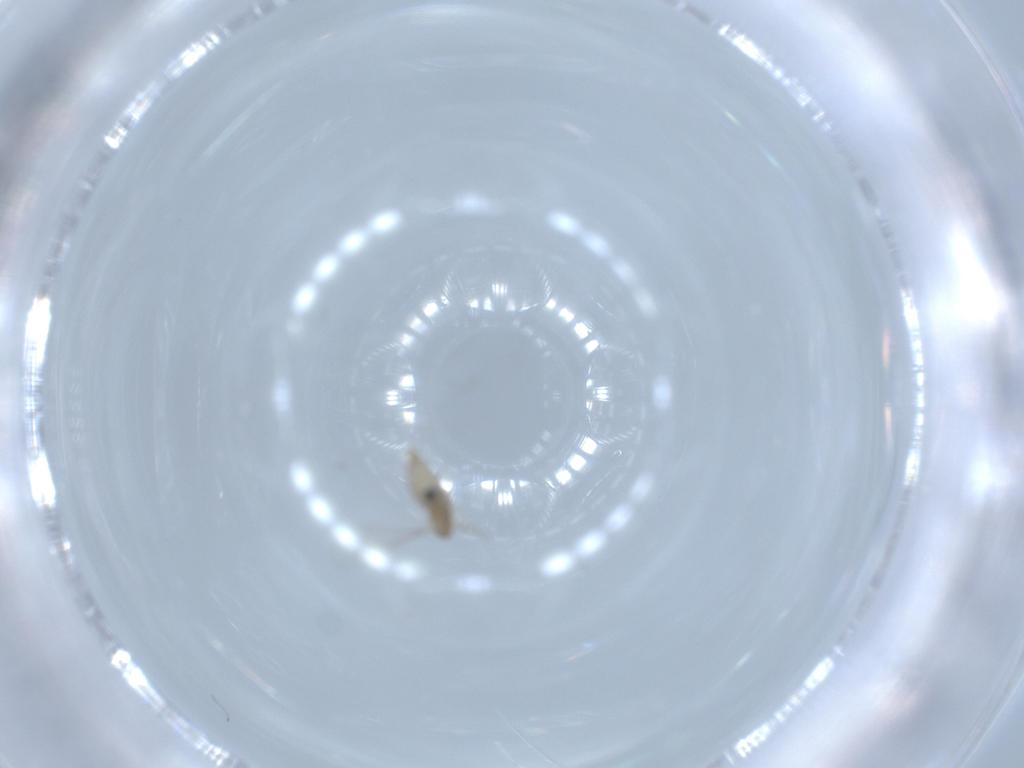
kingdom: Animalia
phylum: Arthropoda
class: Insecta
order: Diptera
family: Cecidomyiidae
